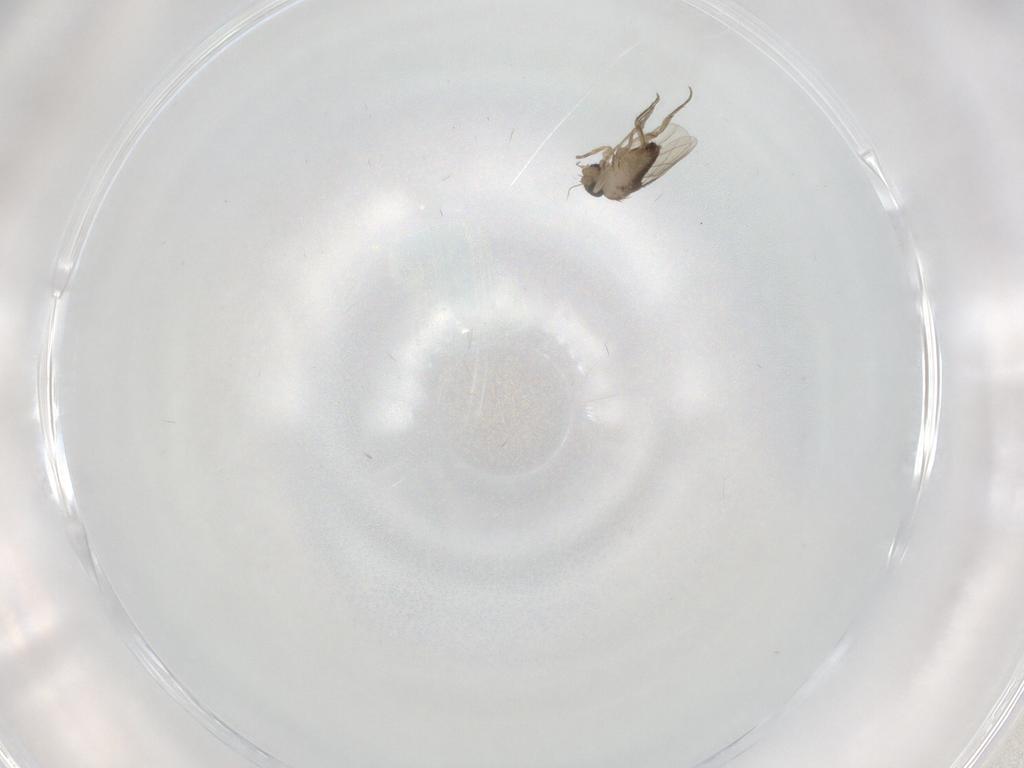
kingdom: Animalia
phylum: Arthropoda
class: Insecta
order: Diptera
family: Phoridae
